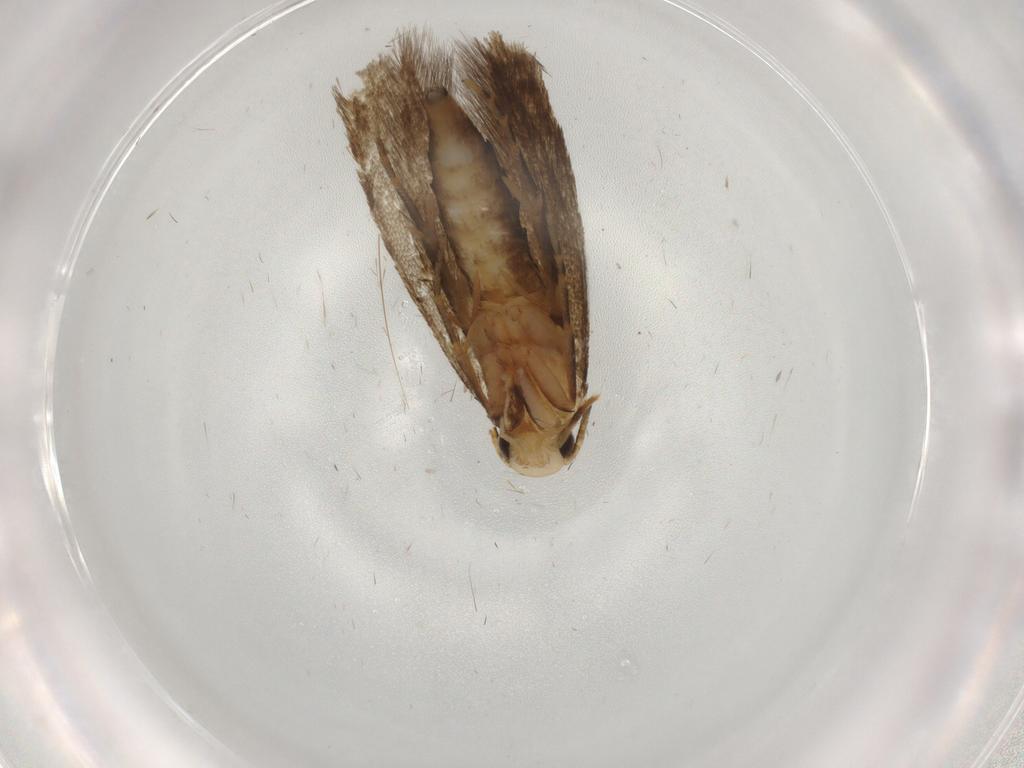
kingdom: Animalia
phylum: Arthropoda
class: Insecta
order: Lepidoptera
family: Tineidae
